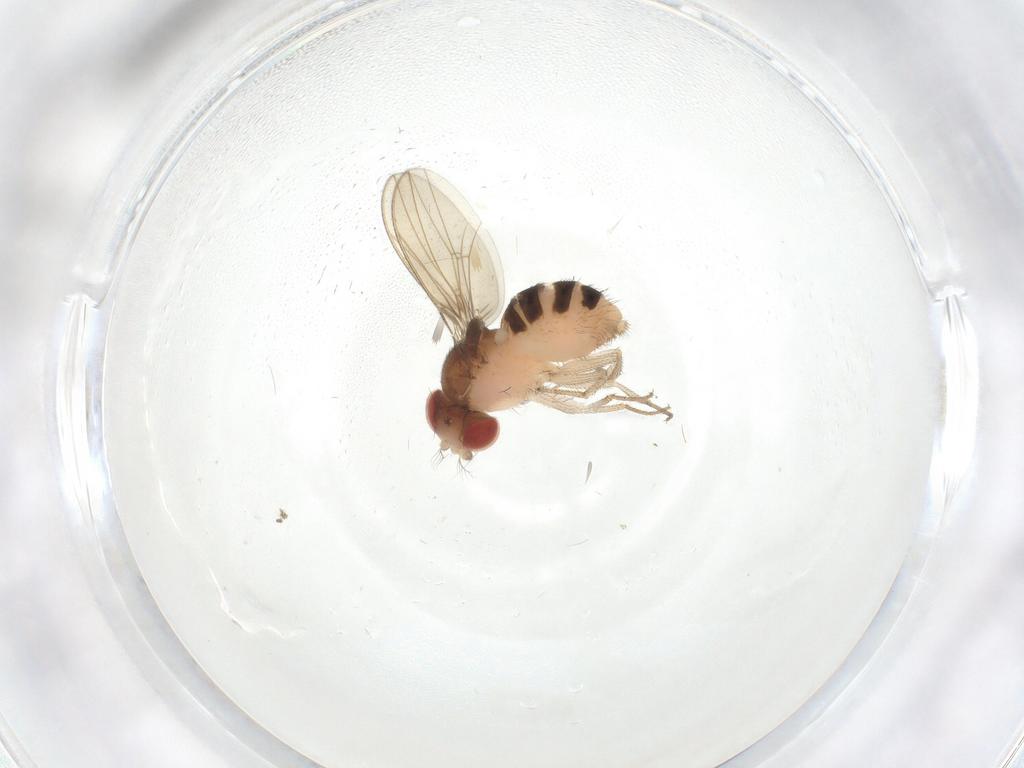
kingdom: Animalia
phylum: Arthropoda
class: Insecta
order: Diptera
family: Drosophilidae
